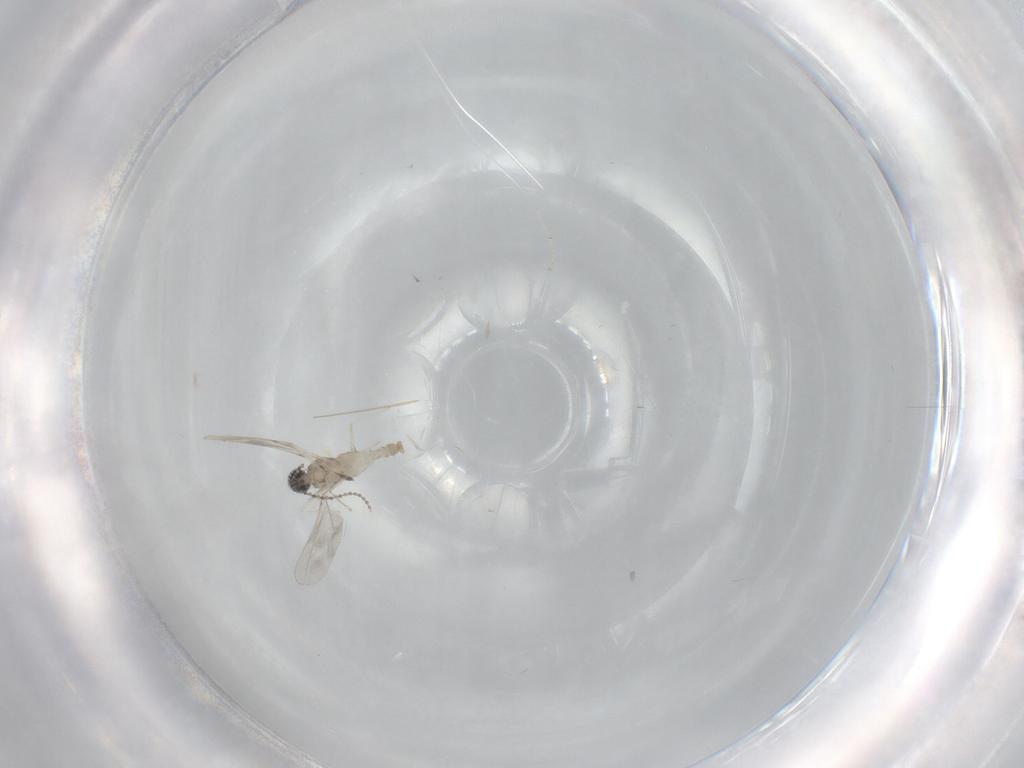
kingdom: Animalia
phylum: Arthropoda
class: Insecta
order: Diptera
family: Cecidomyiidae
